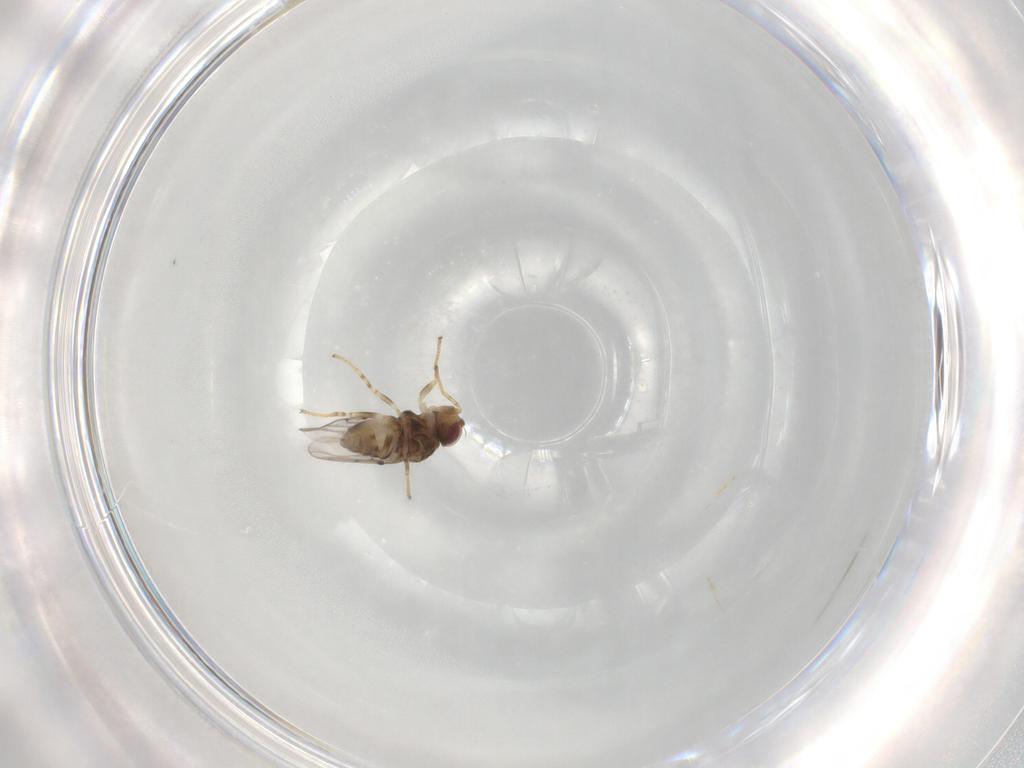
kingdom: Animalia
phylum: Arthropoda
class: Insecta
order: Diptera
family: Chloropidae
